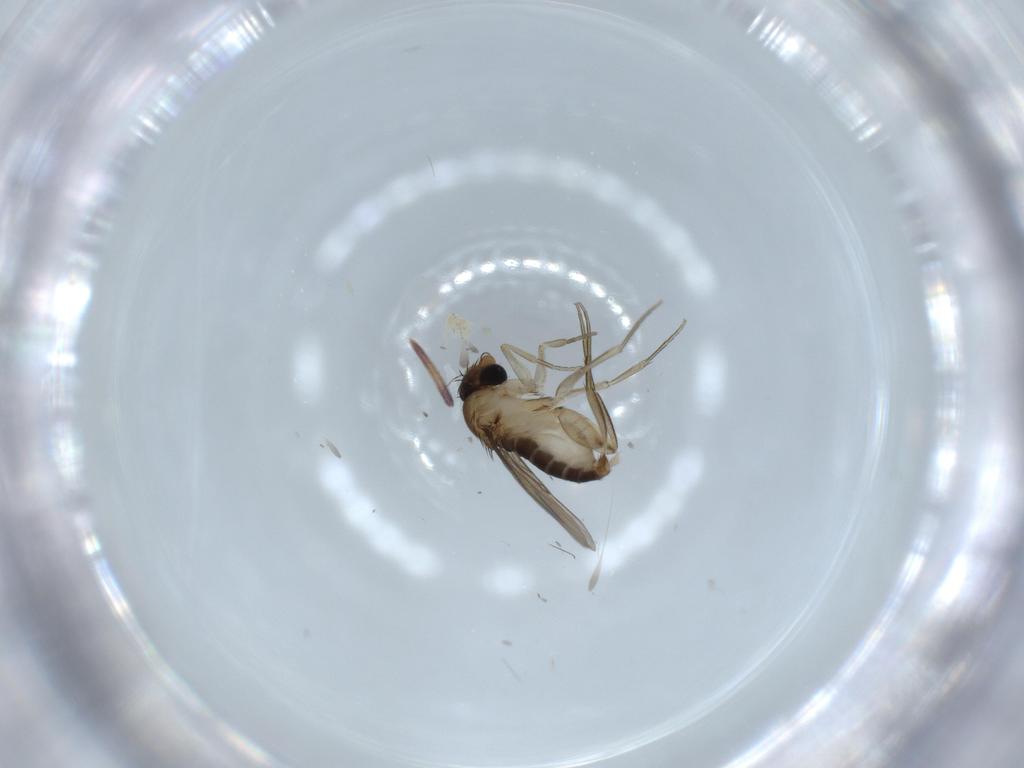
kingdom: Animalia
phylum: Arthropoda
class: Insecta
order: Diptera
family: Phoridae
